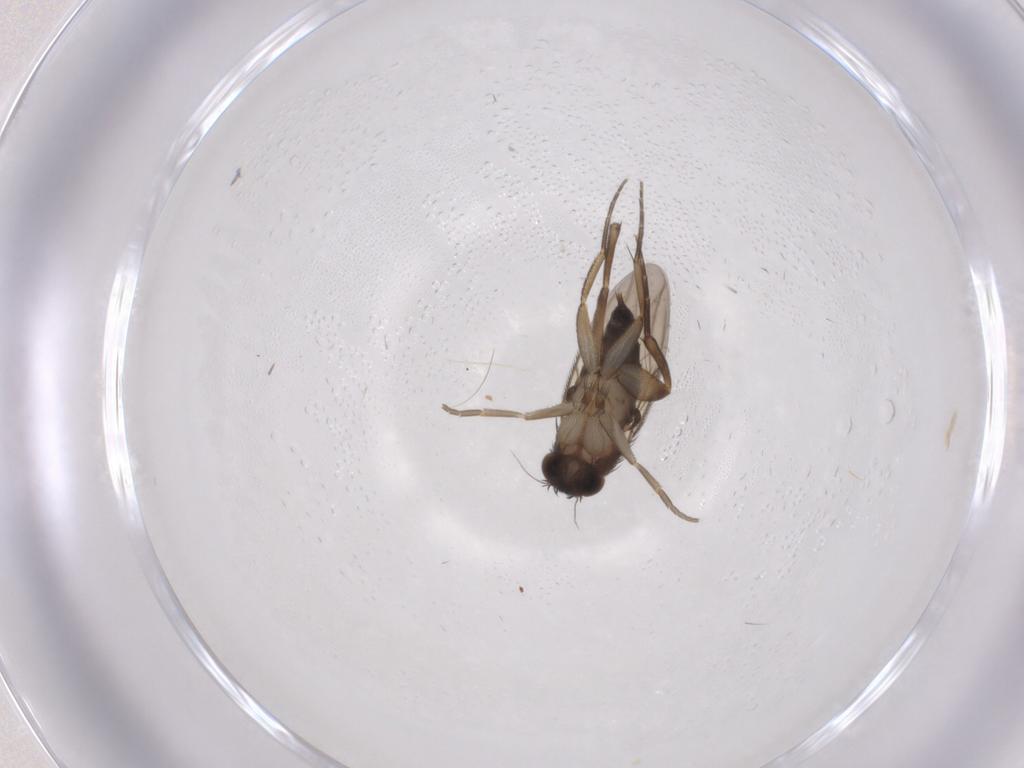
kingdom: Animalia
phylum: Arthropoda
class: Insecta
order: Diptera
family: Phoridae
